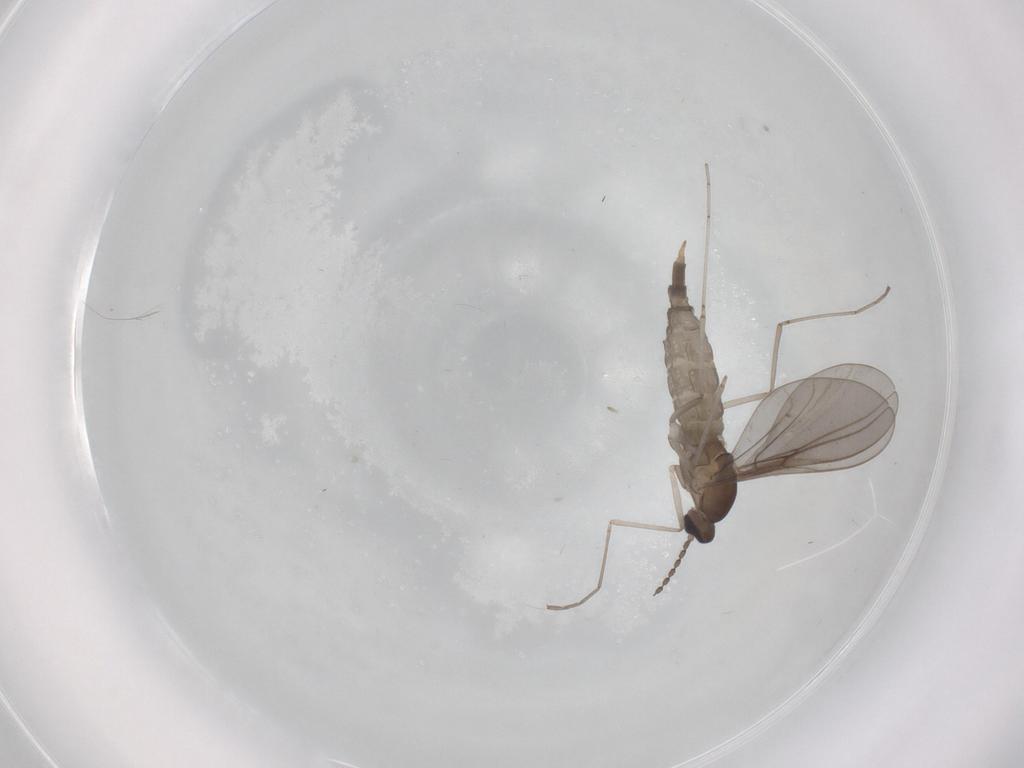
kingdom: Animalia
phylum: Arthropoda
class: Insecta
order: Diptera
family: Cecidomyiidae
